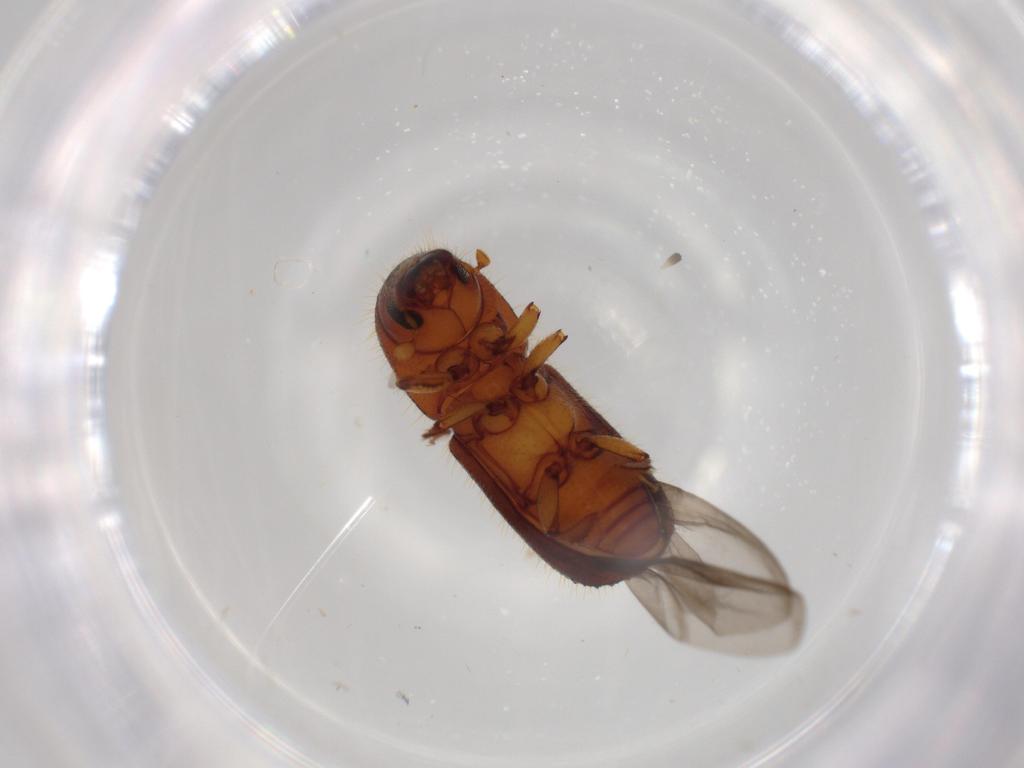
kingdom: Animalia
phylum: Arthropoda
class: Insecta
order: Coleoptera
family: Curculionidae
